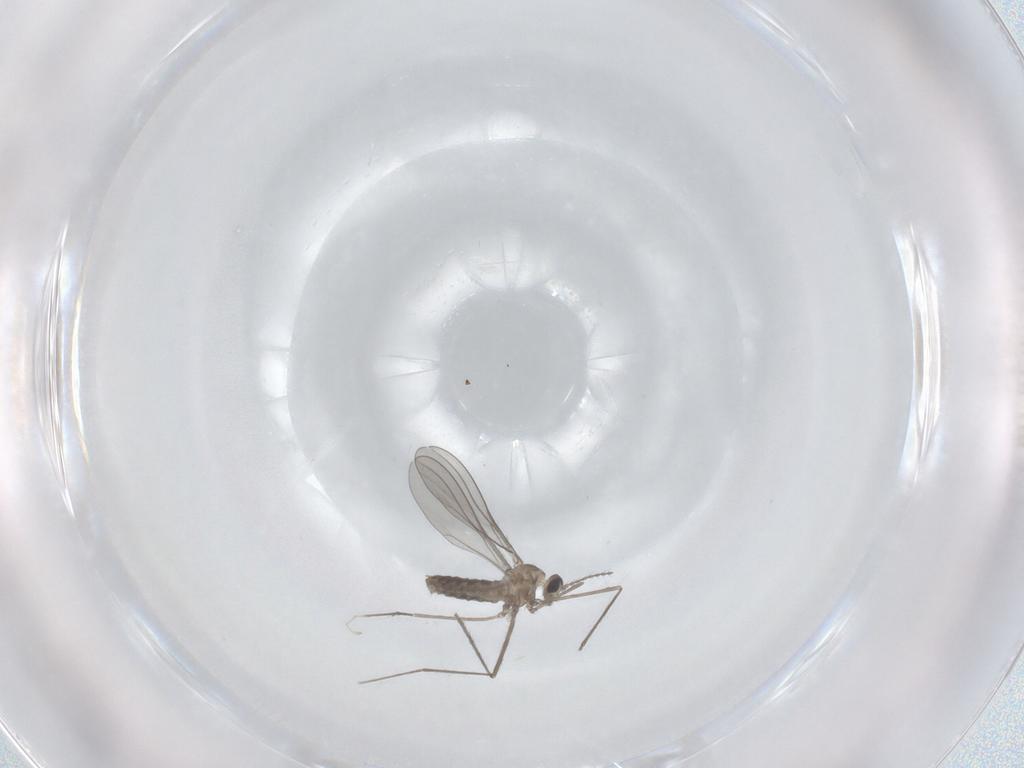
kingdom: Animalia
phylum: Arthropoda
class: Insecta
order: Diptera
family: Cecidomyiidae
